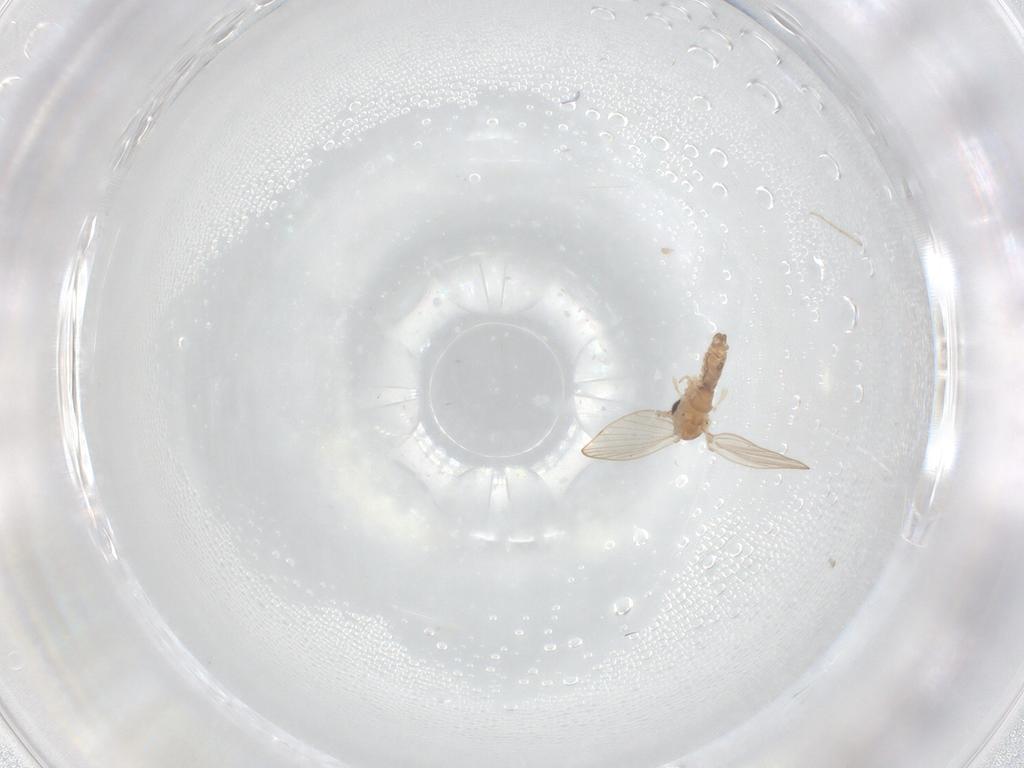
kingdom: Animalia
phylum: Arthropoda
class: Insecta
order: Diptera
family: Psychodidae
